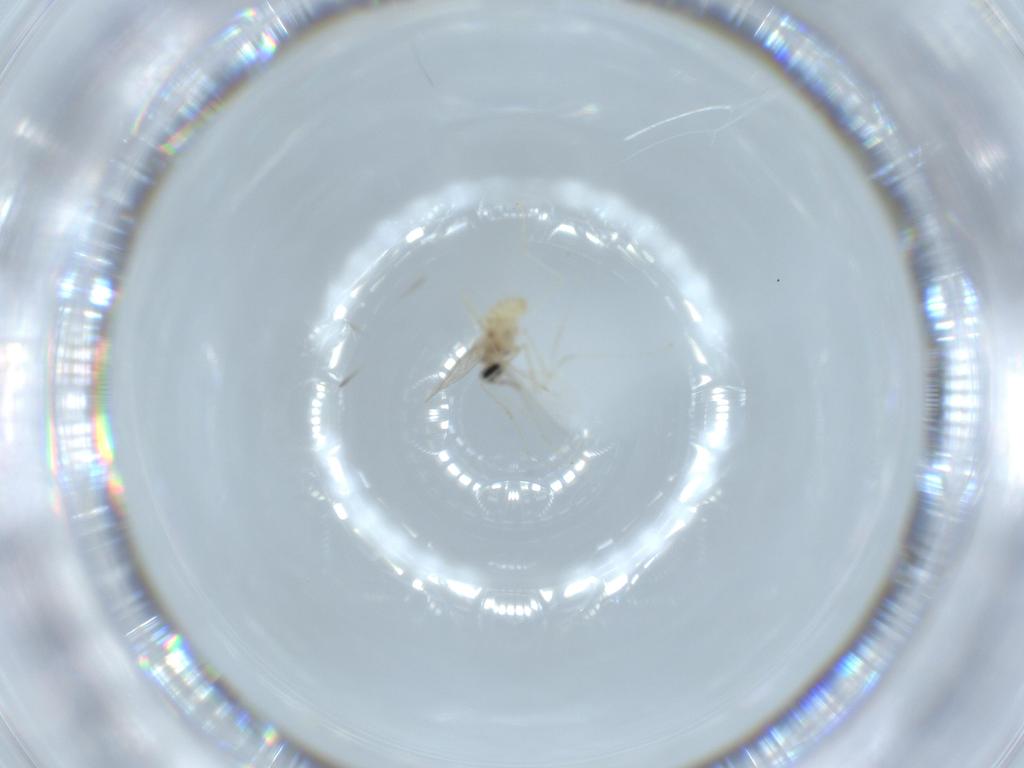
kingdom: Animalia
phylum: Arthropoda
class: Insecta
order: Diptera
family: Cecidomyiidae
